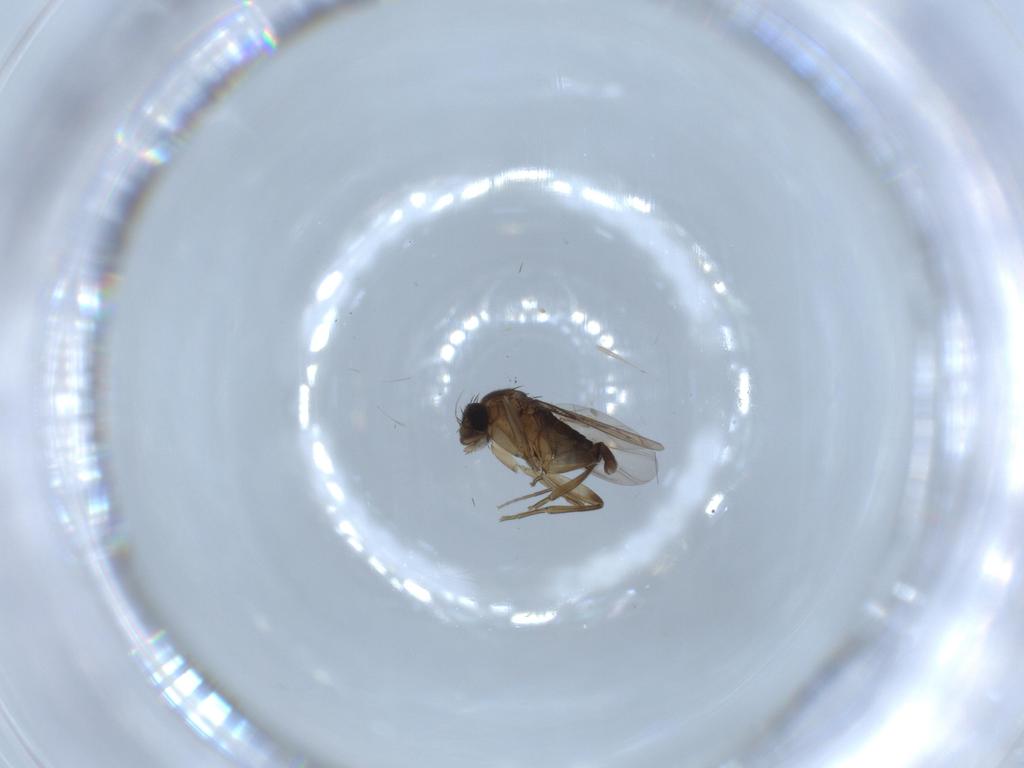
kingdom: Animalia
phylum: Arthropoda
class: Insecta
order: Diptera
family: Phoridae
